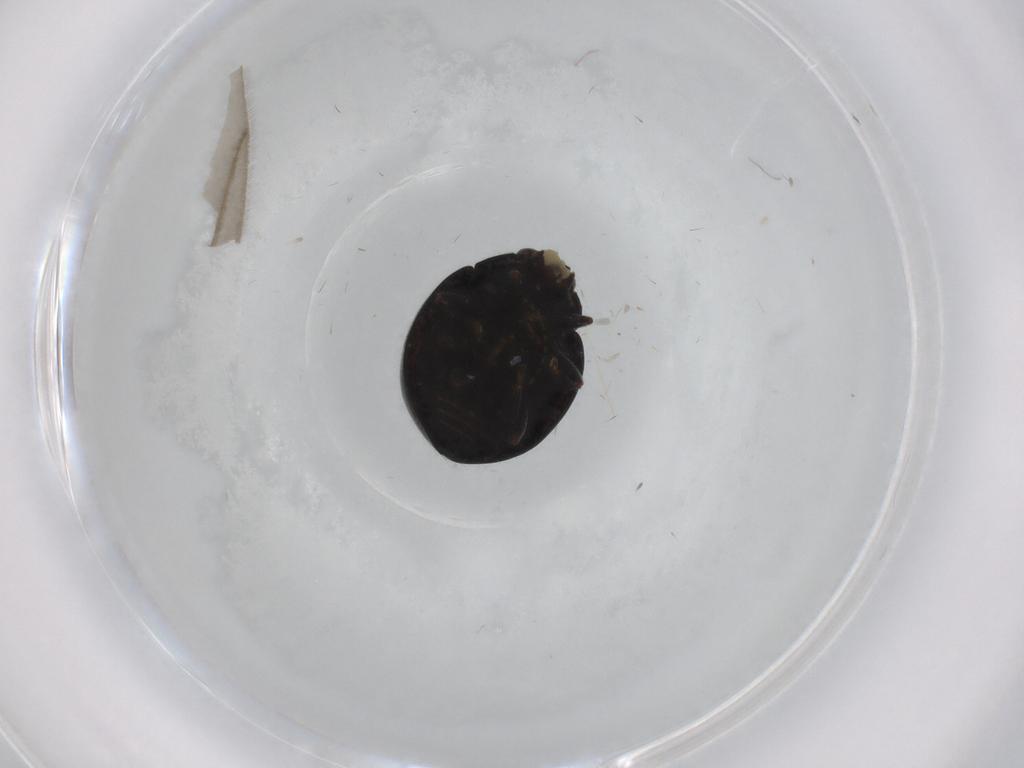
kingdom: Animalia
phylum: Arthropoda
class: Insecta
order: Coleoptera
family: Coccinellidae
